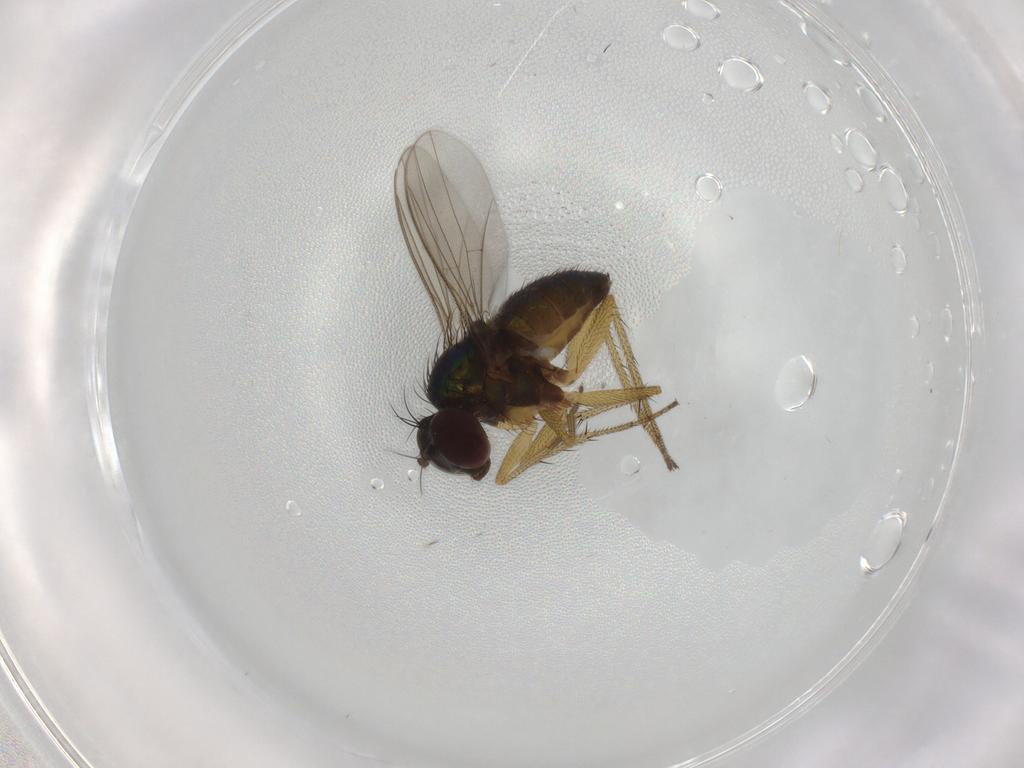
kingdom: Animalia
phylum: Arthropoda
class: Insecta
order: Diptera
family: Dolichopodidae
